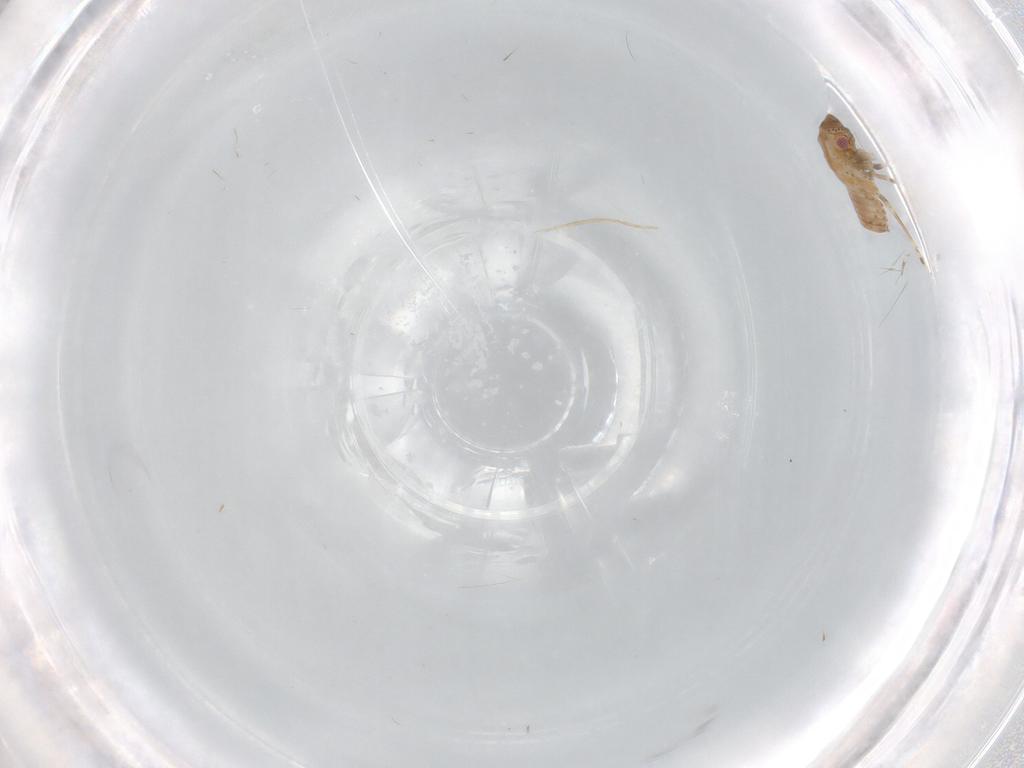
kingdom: Animalia
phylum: Arthropoda
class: Insecta
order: Hemiptera
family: Flatidae
